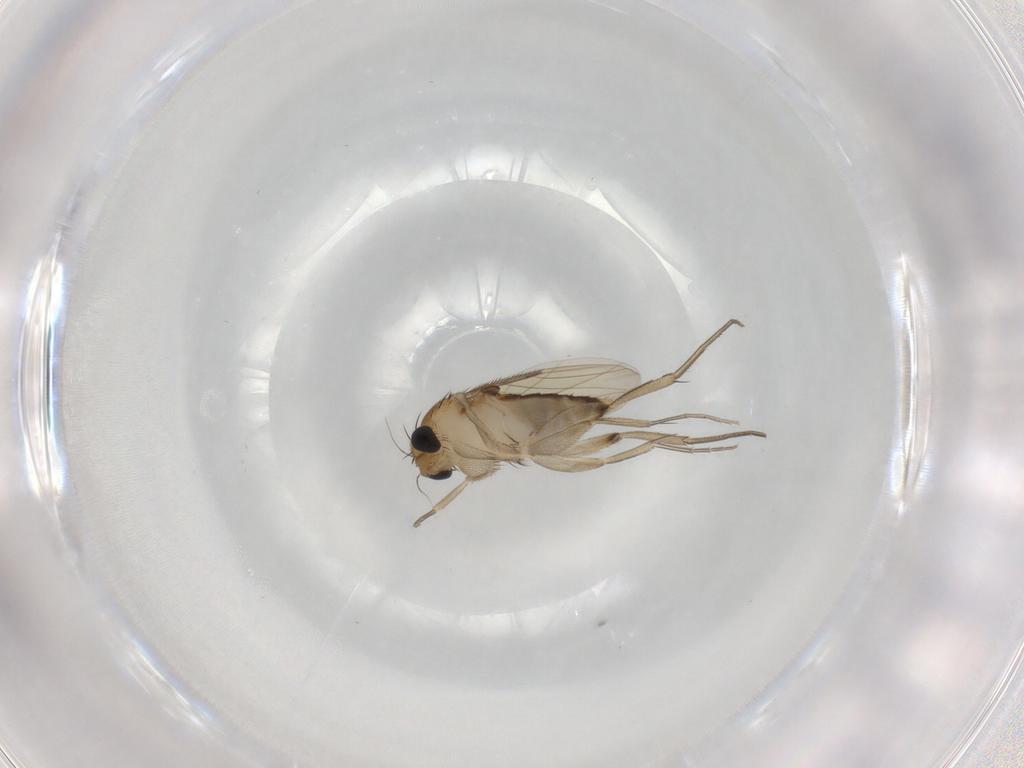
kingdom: Animalia
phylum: Arthropoda
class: Insecta
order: Diptera
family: Phoridae
